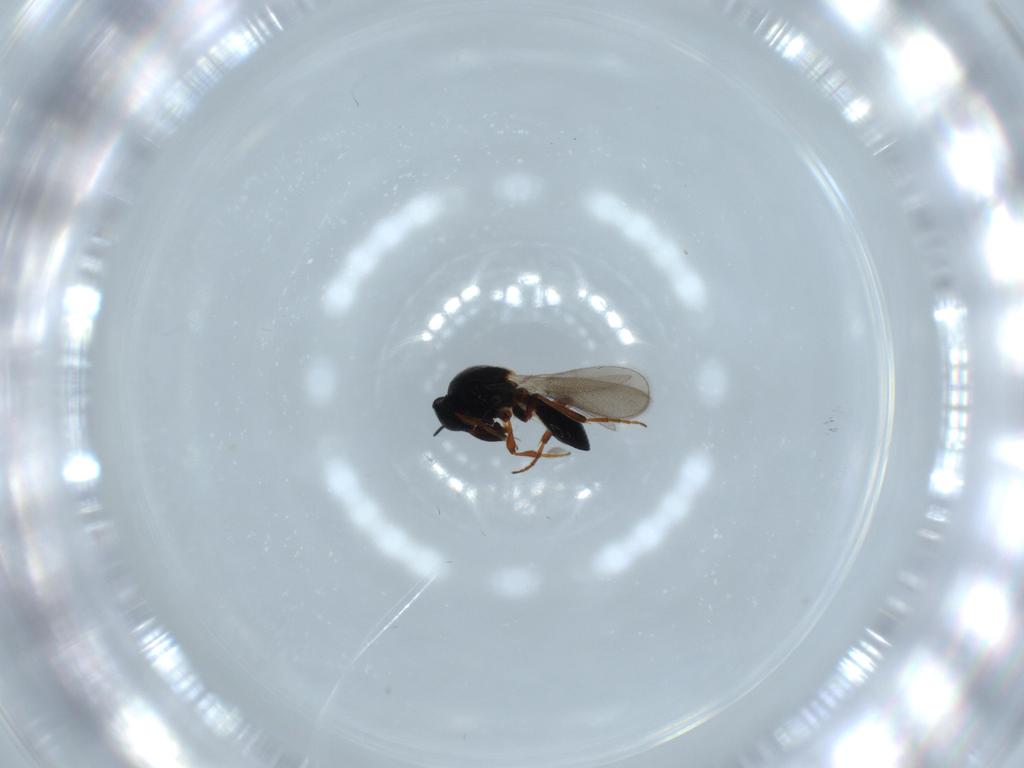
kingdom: Animalia
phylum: Arthropoda
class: Insecta
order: Hymenoptera
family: Platygastridae
